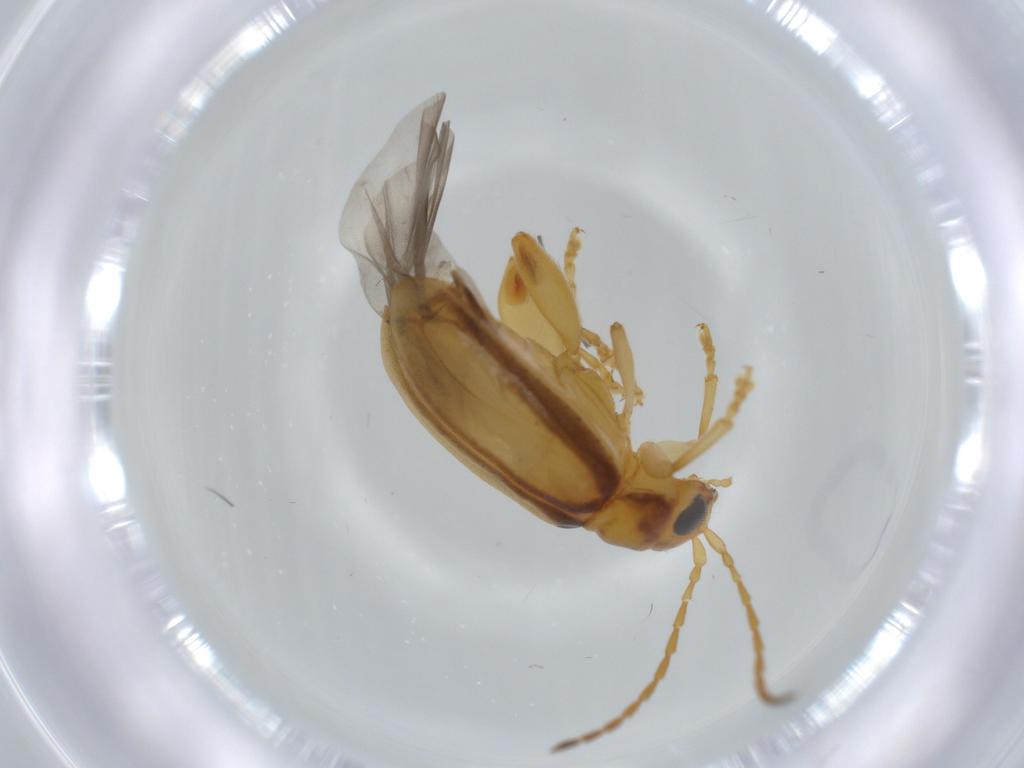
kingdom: Animalia
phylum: Arthropoda
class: Insecta
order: Coleoptera
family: Chrysomelidae
